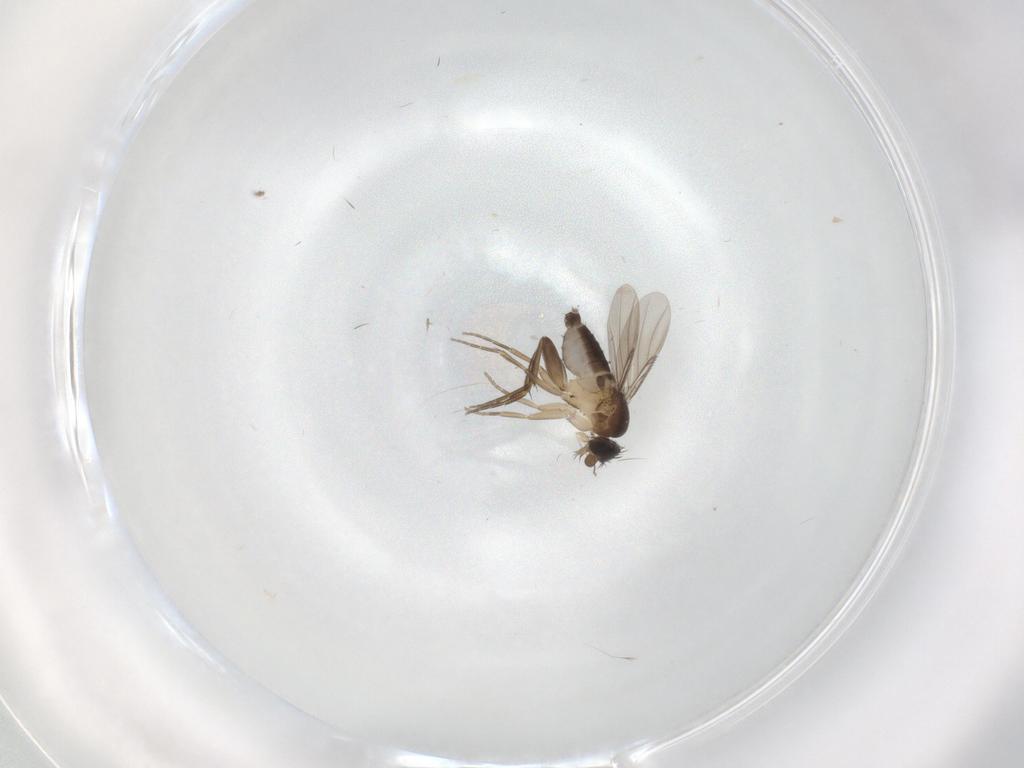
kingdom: Animalia
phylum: Arthropoda
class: Insecta
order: Diptera
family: Phoridae
